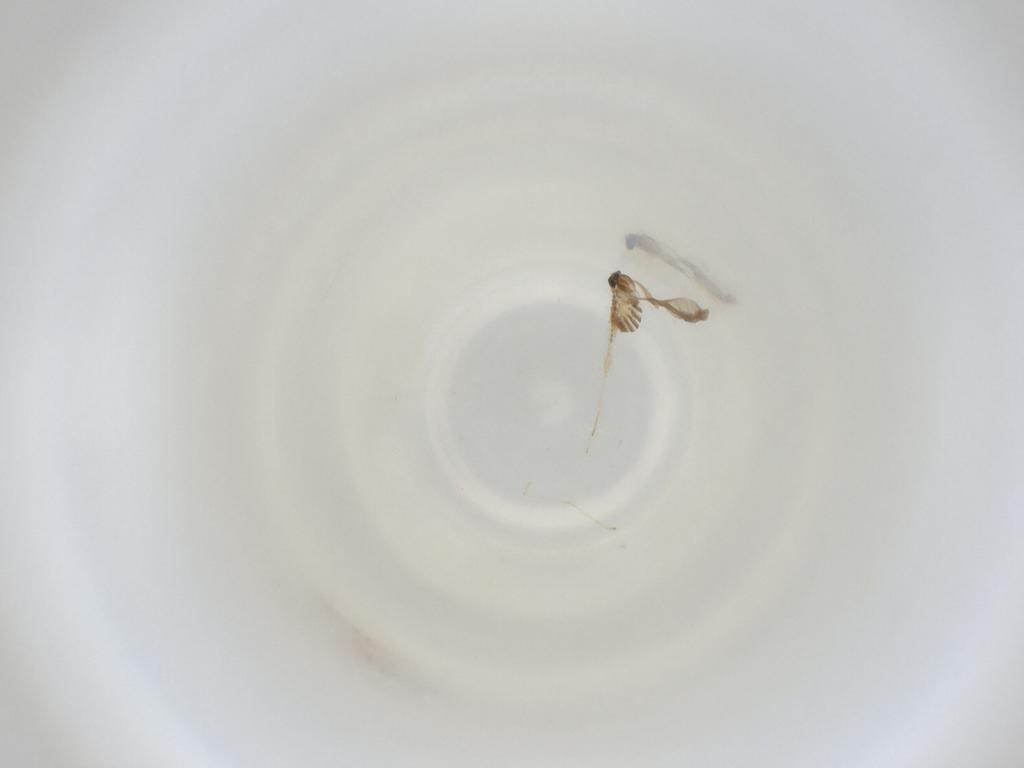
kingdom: Animalia
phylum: Arthropoda
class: Insecta
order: Diptera
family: Cecidomyiidae
